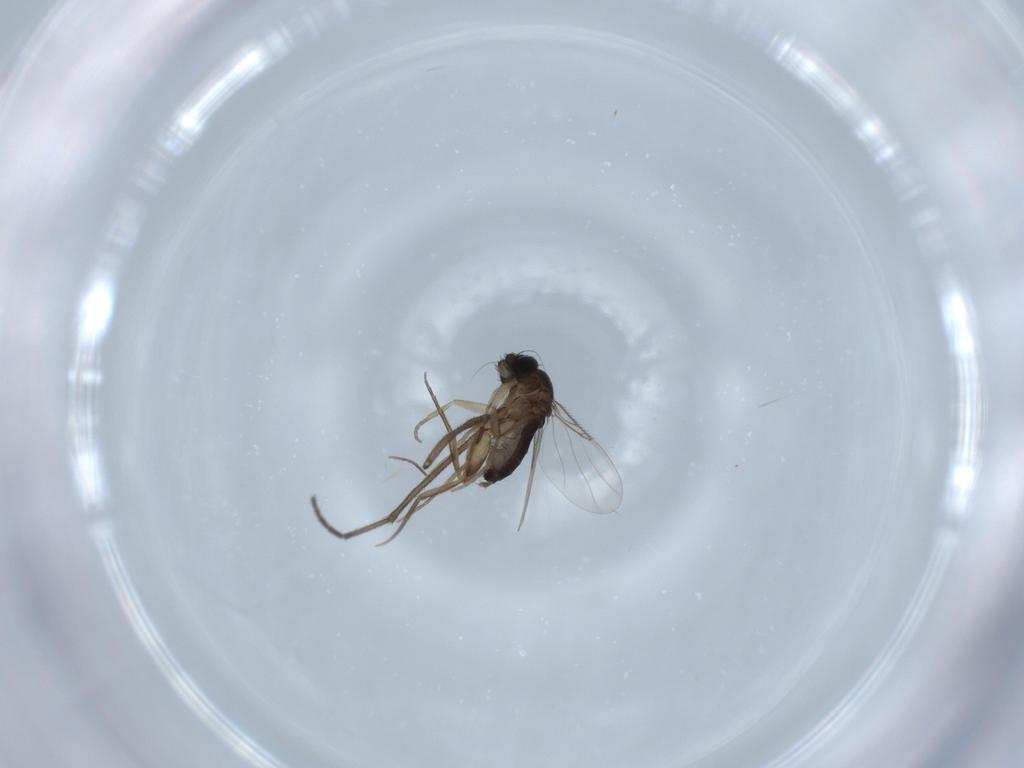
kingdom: Animalia
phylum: Arthropoda
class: Insecta
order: Diptera
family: Phoridae
